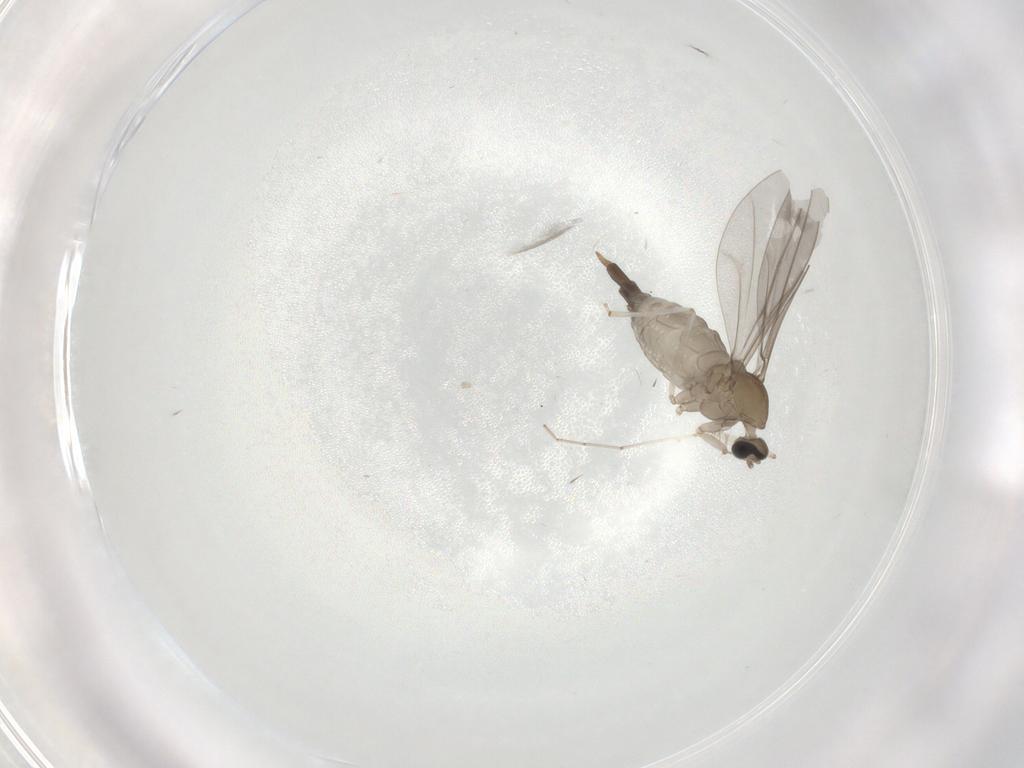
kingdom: Animalia
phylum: Arthropoda
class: Insecta
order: Diptera
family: Cecidomyiidae
